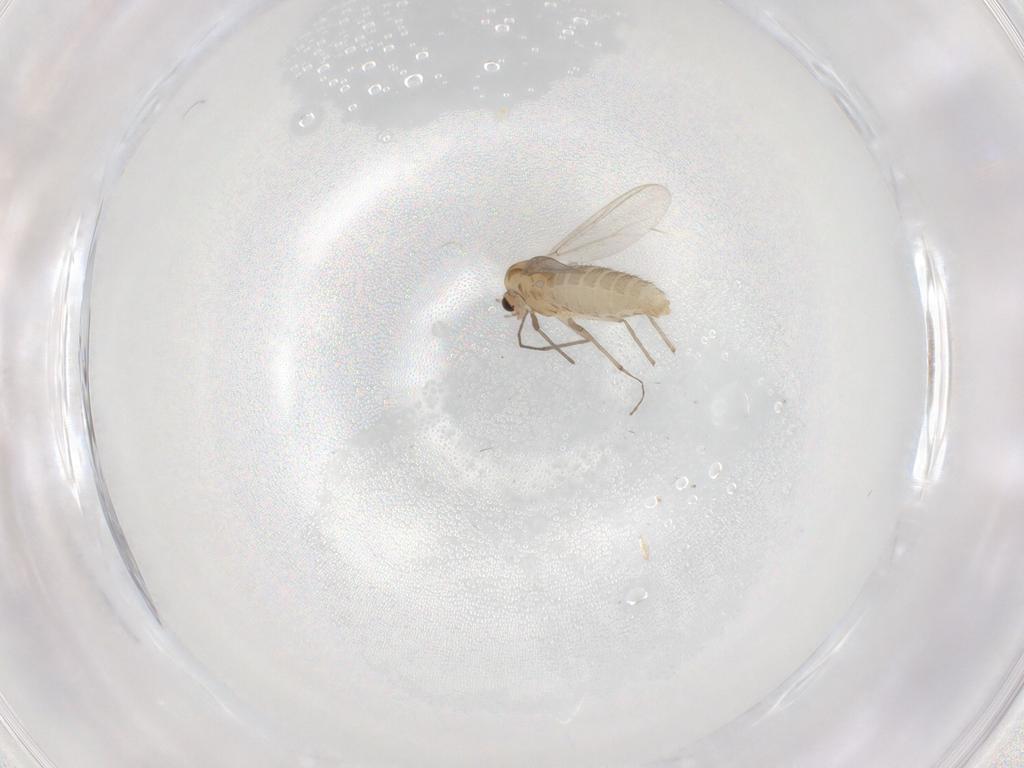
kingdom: Animalia
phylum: Arthropoda
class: Insecta
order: Diptera
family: Chironomidae
